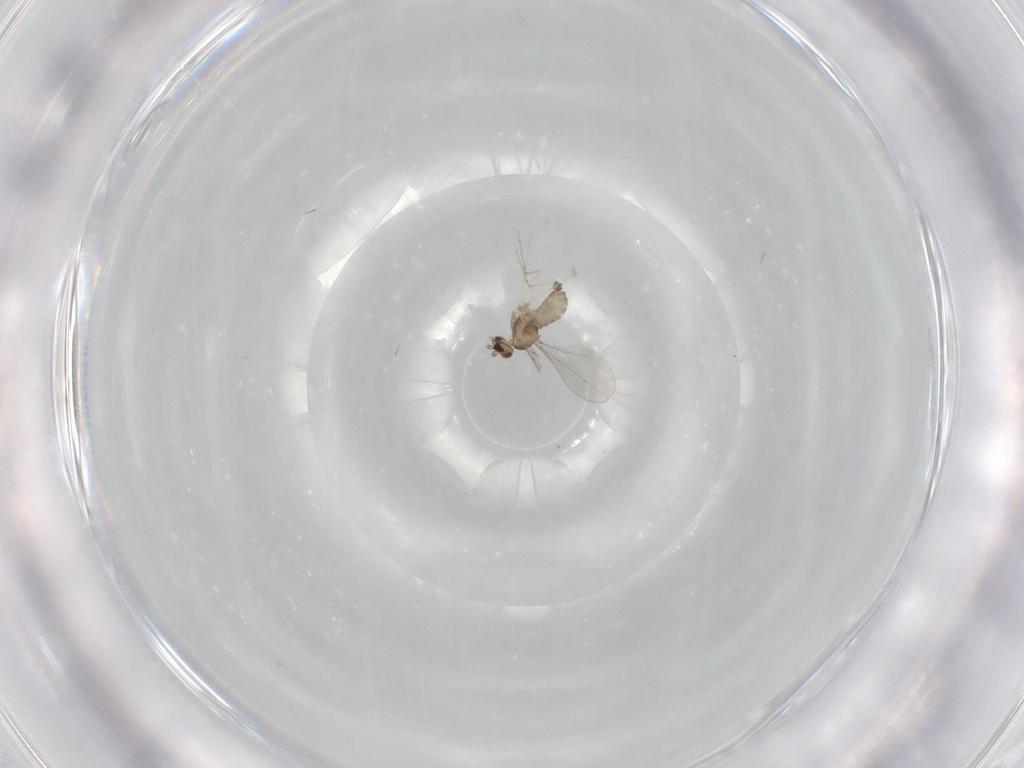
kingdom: Animalia
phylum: Arthropoda
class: Insecta
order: Diptera
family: Cecidomyiidae
